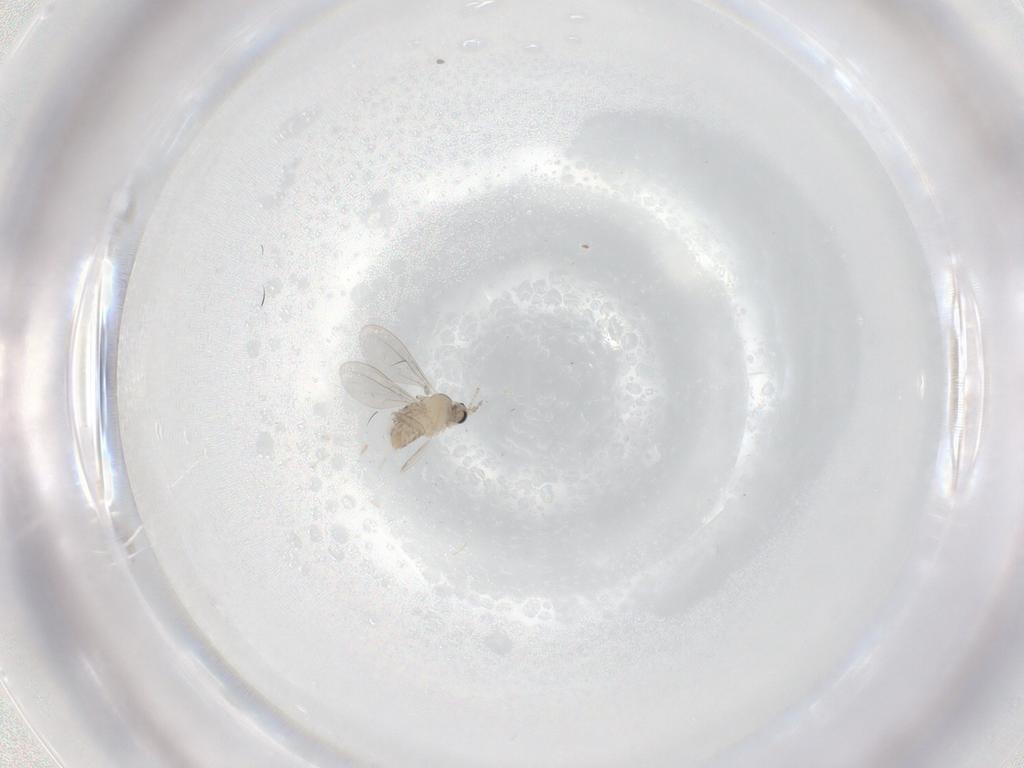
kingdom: Animalia
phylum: Arthropoda
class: Insecta
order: Diptera
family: Cecidomyiidae
